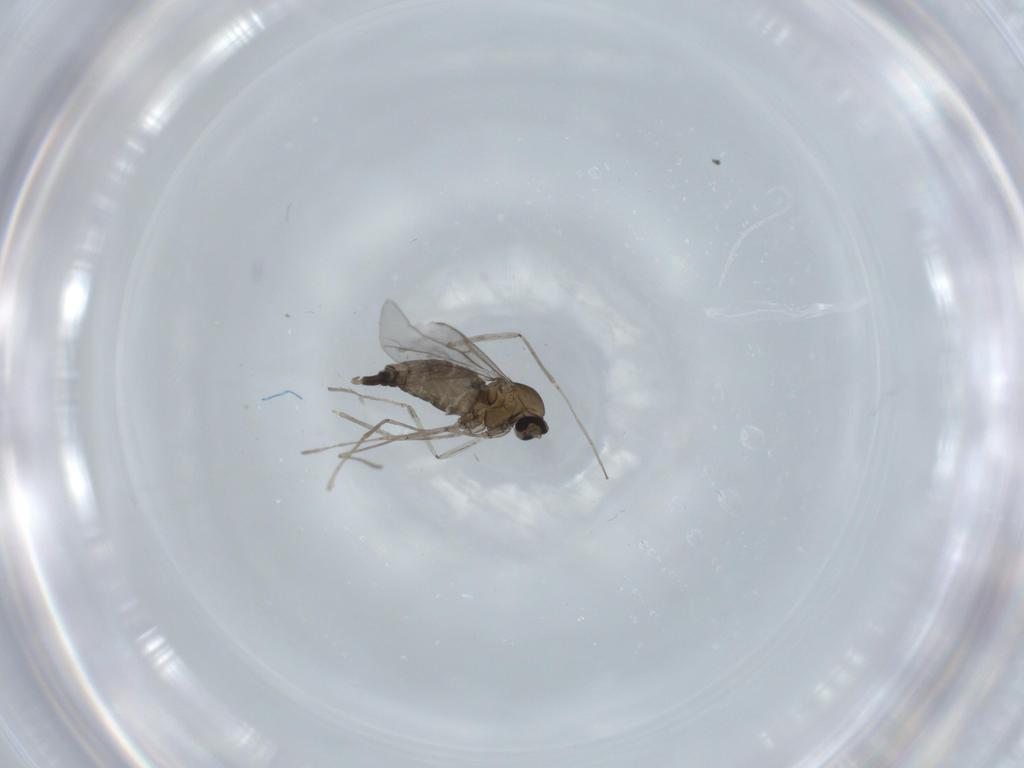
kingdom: Animalia
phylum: Arthropoda
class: Insecta
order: Diptera
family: Cecidomyiidae
